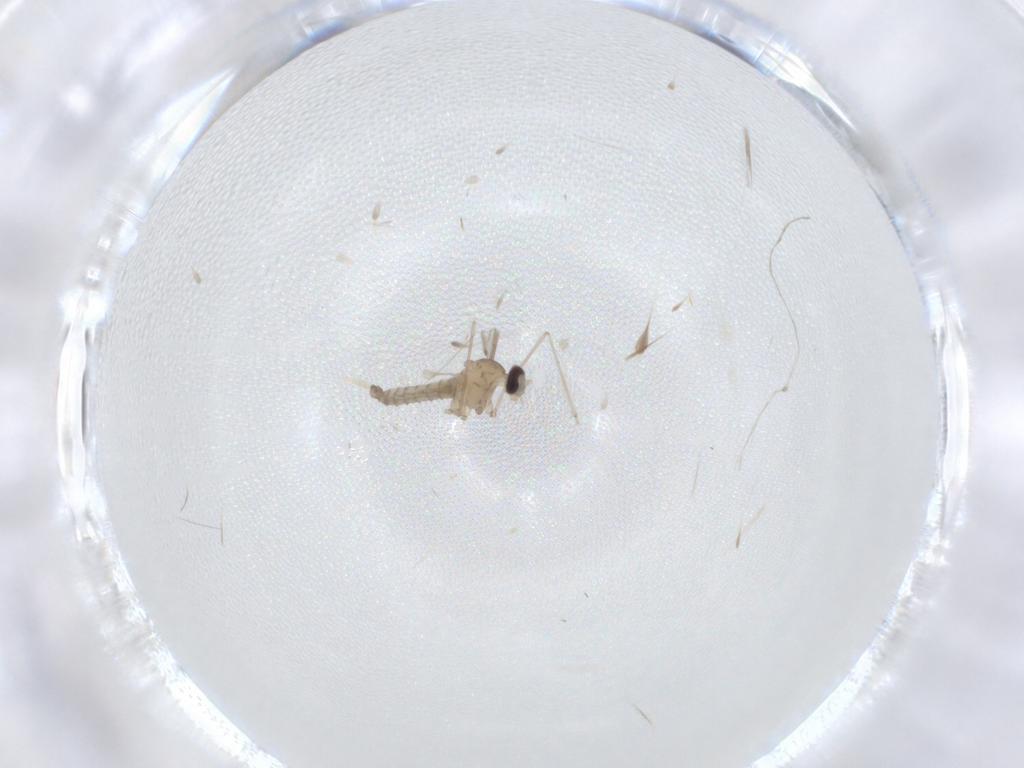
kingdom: Animalia
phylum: Arthropoda
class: Insecta
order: Diptera
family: Cecidomyiidae
